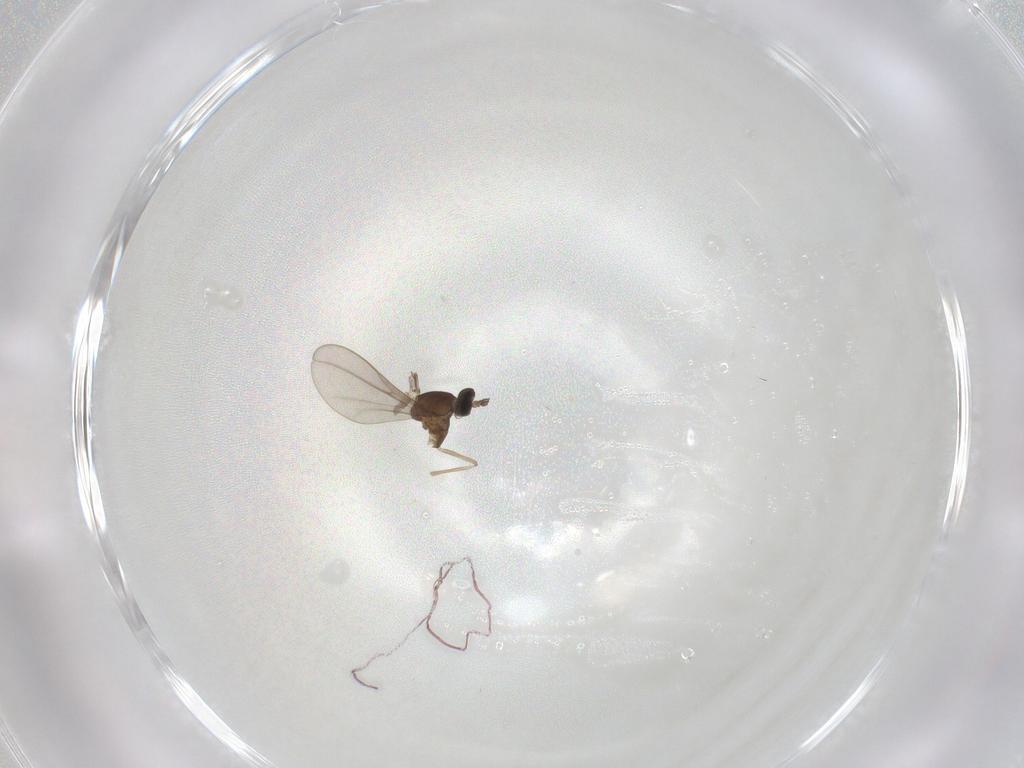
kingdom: Animalia
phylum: Arthropoda
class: Insecta
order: Diptera
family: Cecidomyiidae
